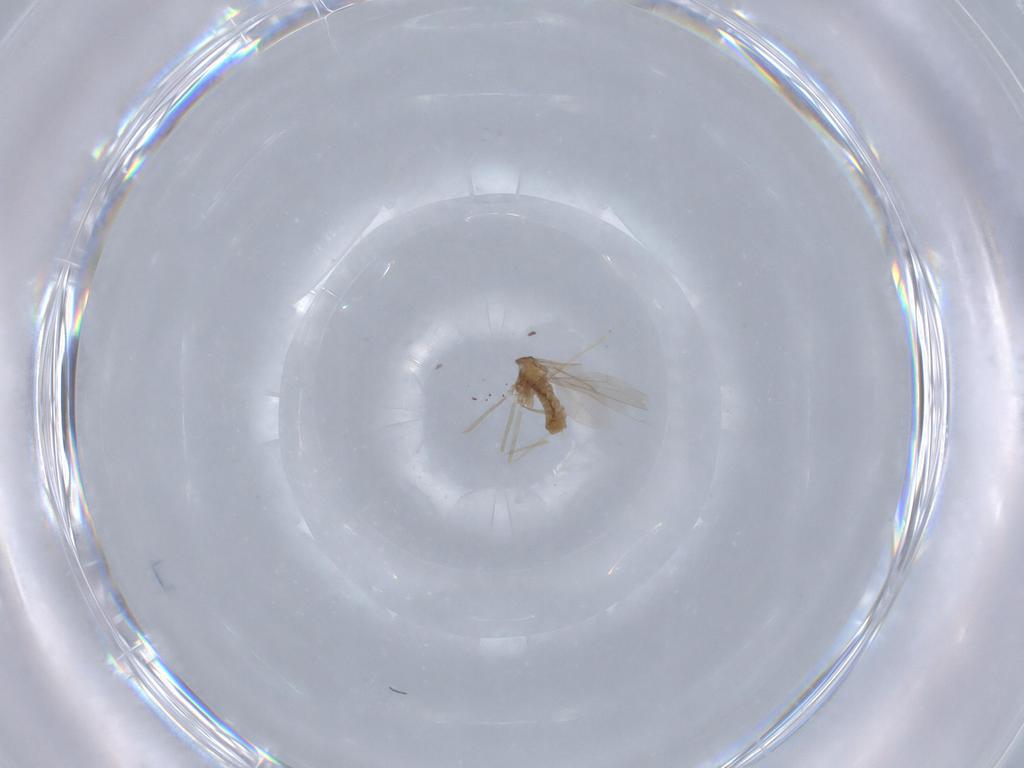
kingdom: Animalia
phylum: Arthropoda
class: Insecta
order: Diptera
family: Cecidomyiidae
